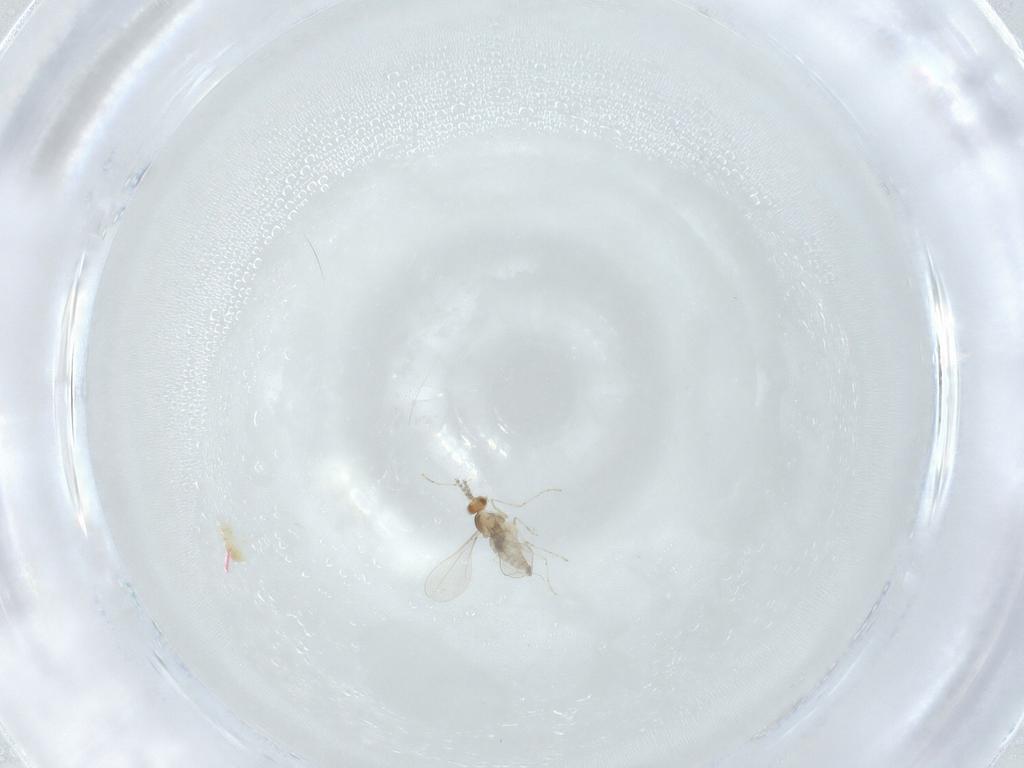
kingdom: Animalia
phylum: Arthropoda
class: Insecta
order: Diptera
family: Cecidomyiidae
